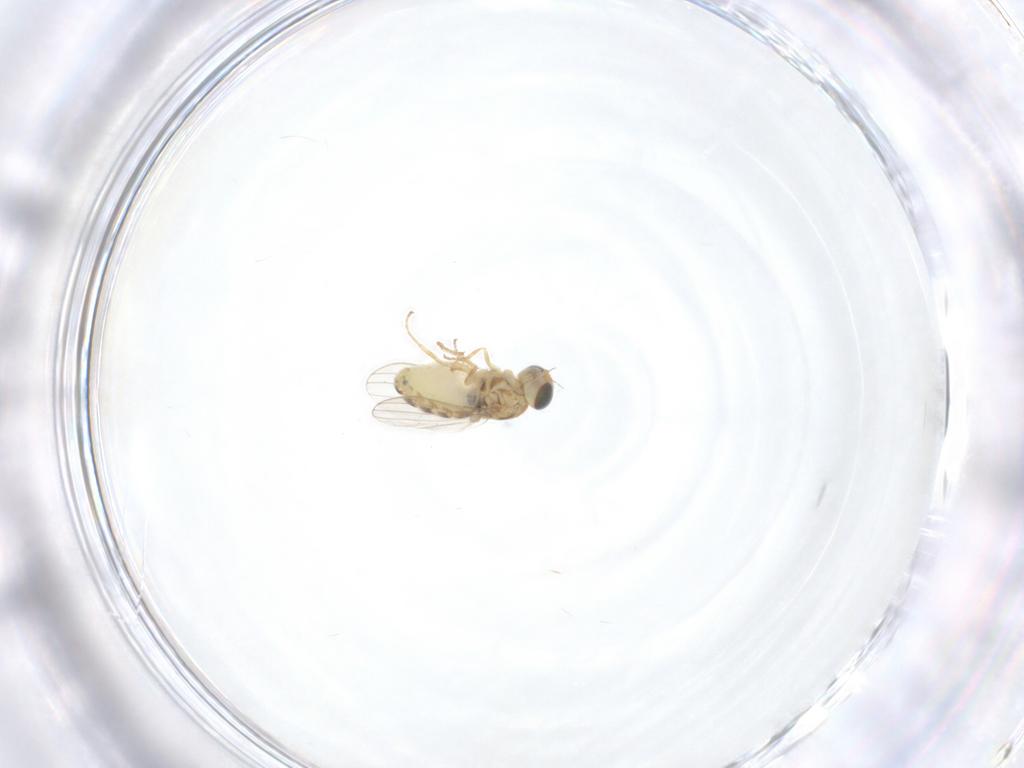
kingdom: Animalia
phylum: Arthropoda
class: Insecta
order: Diptera
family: Chyromyidae
